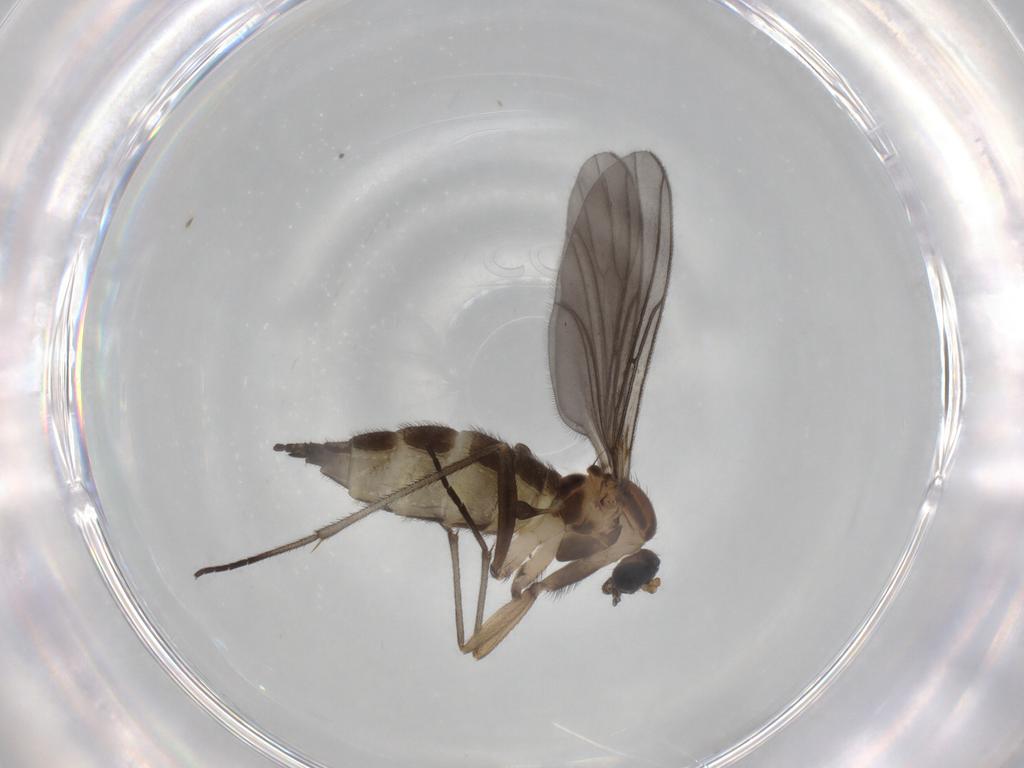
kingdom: Animalia
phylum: Arthropoda
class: Insecta
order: Diptera
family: Sciaridae
